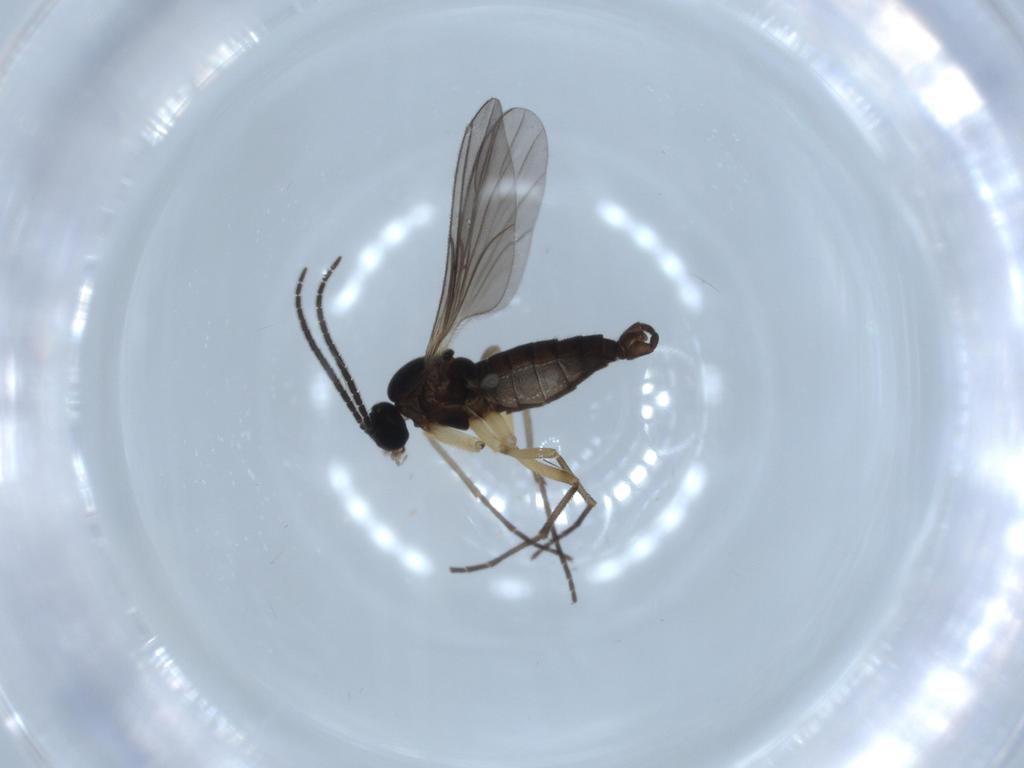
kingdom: Animalia
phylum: Arthropoda
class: Insecta
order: Diptera
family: Sciaridae
